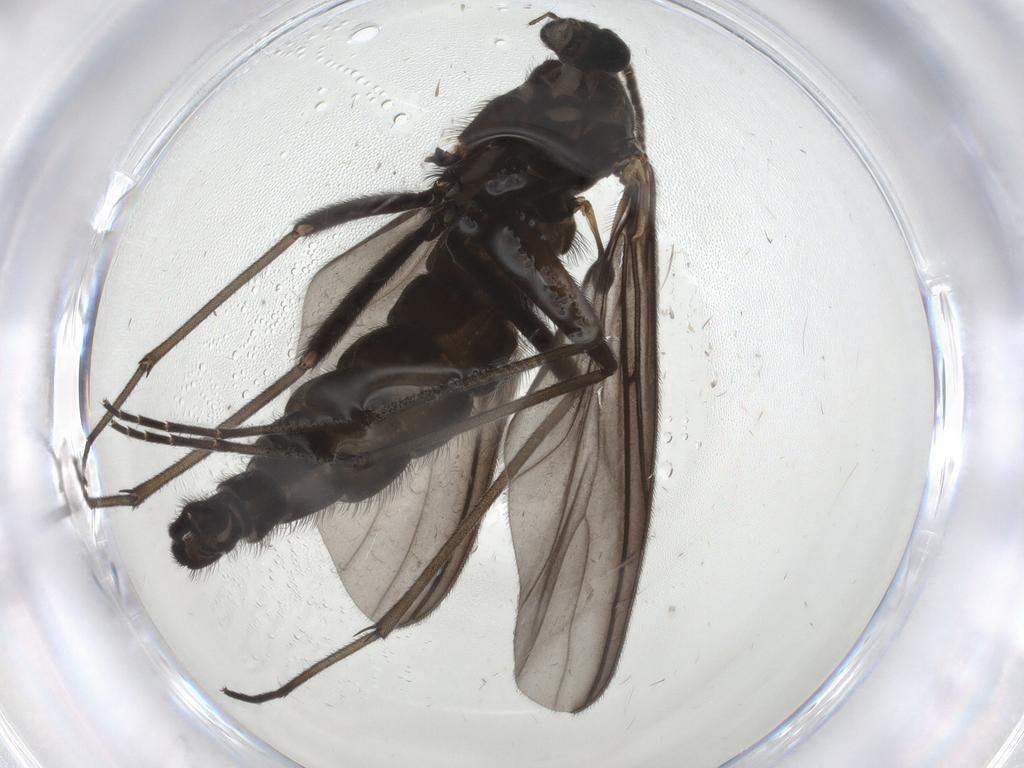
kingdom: Animalia
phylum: Arthropoda
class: Insecta
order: Diptera
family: Sciaridae
